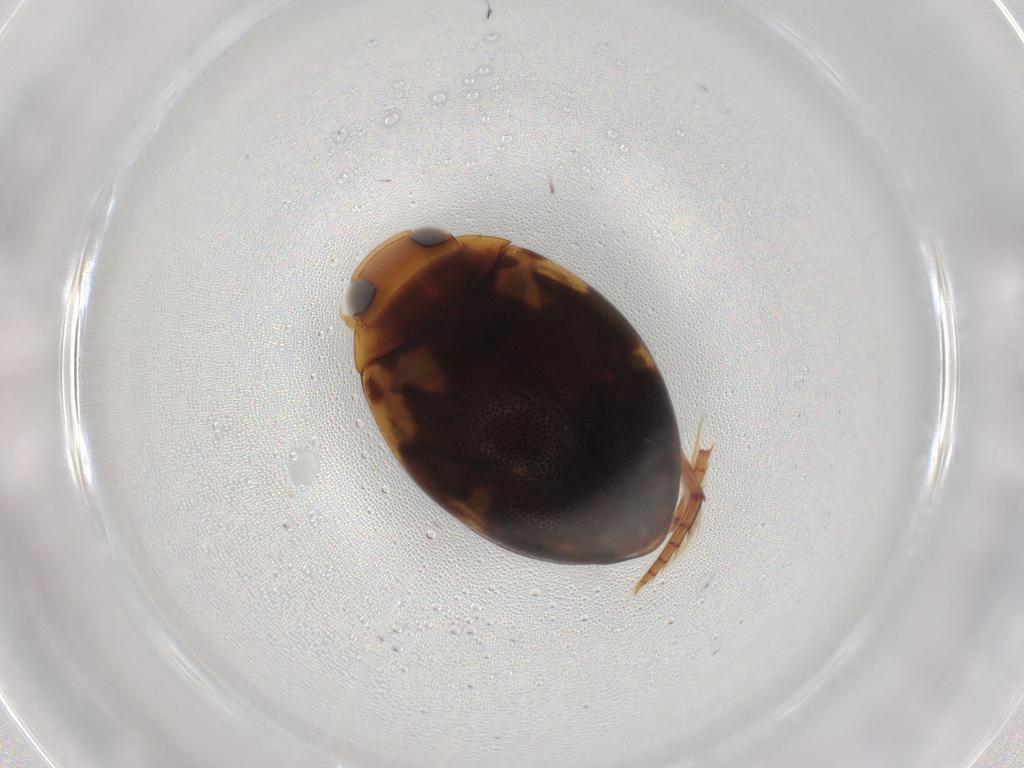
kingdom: Animalia
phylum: Arthropoda
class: Insecta
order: Coleoptera
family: Dytiscidae
